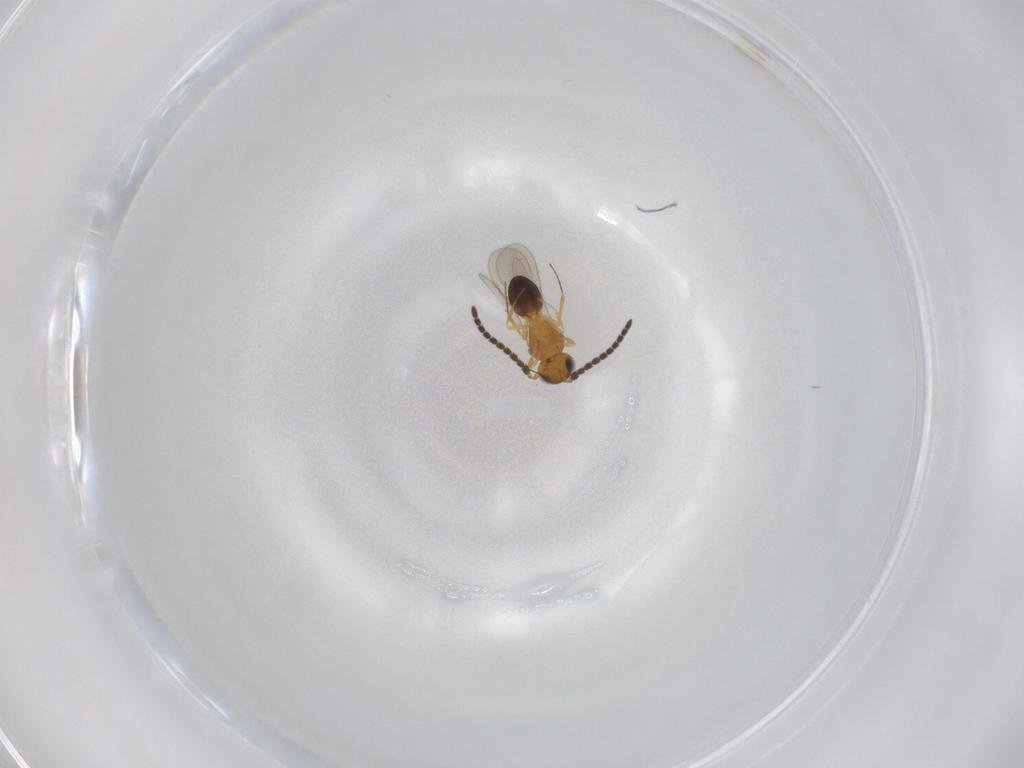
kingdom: Animalia
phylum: Arthropoda
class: Insecta
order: Hymenoptera
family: Scelionidae
